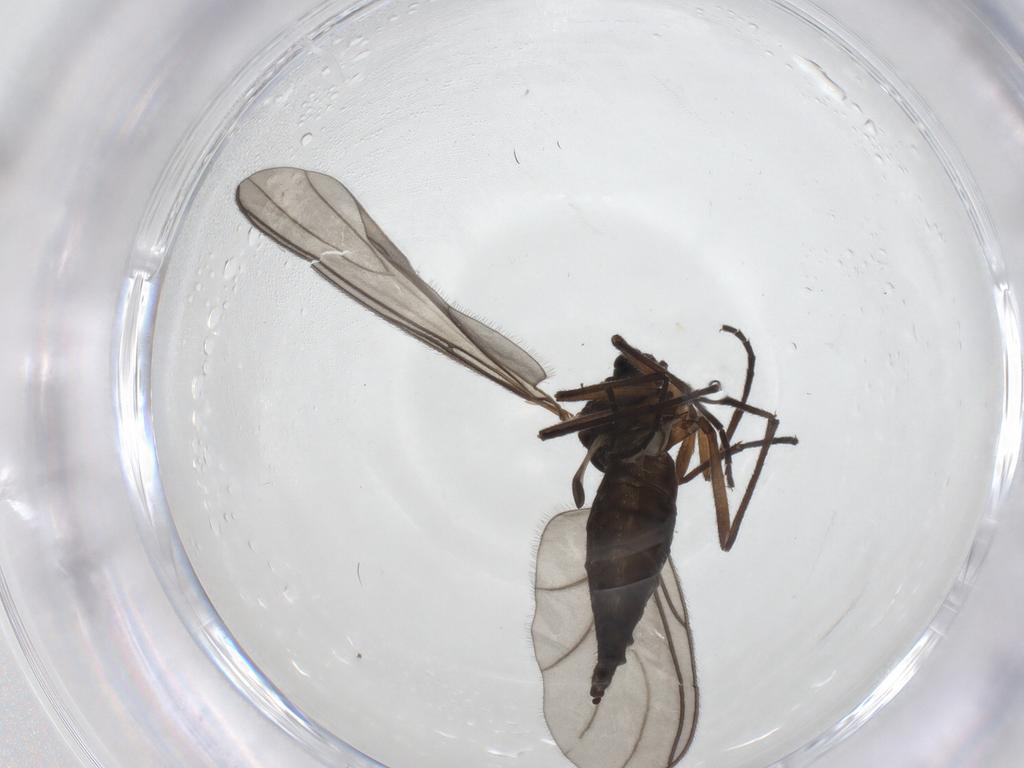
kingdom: Animalia
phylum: Arthropoda
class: Insecta
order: Diptera
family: Sciaridae
